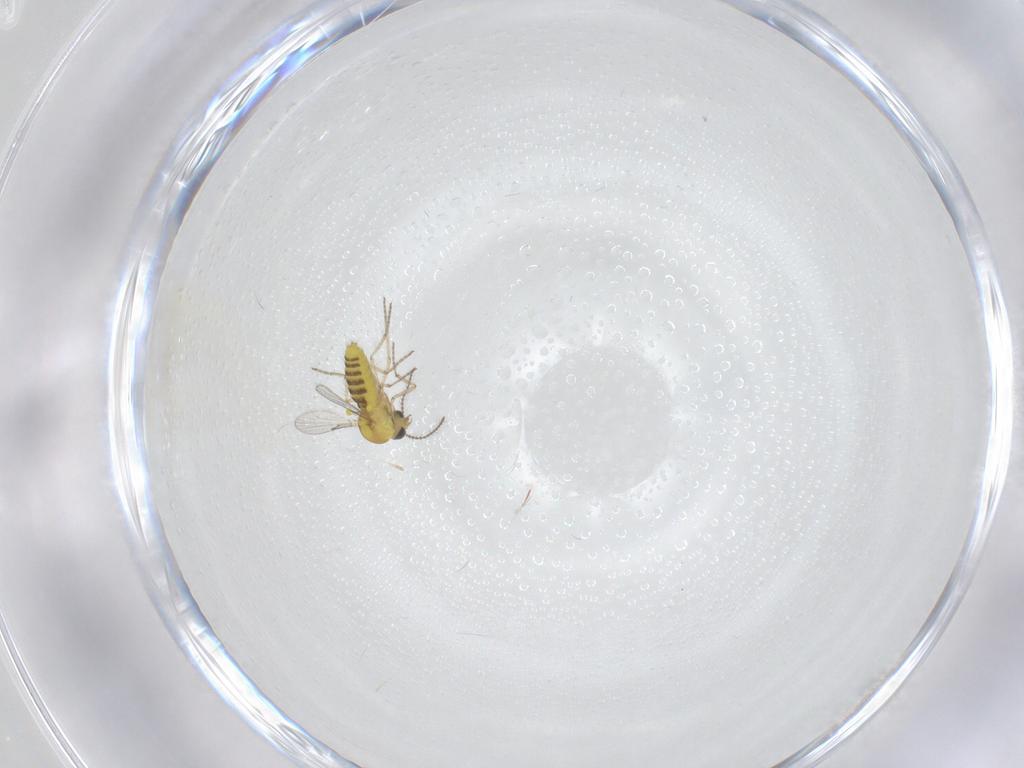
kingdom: Animalia
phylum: Arthropoda
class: Insecta
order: Diptera
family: Ceratopogonidae
